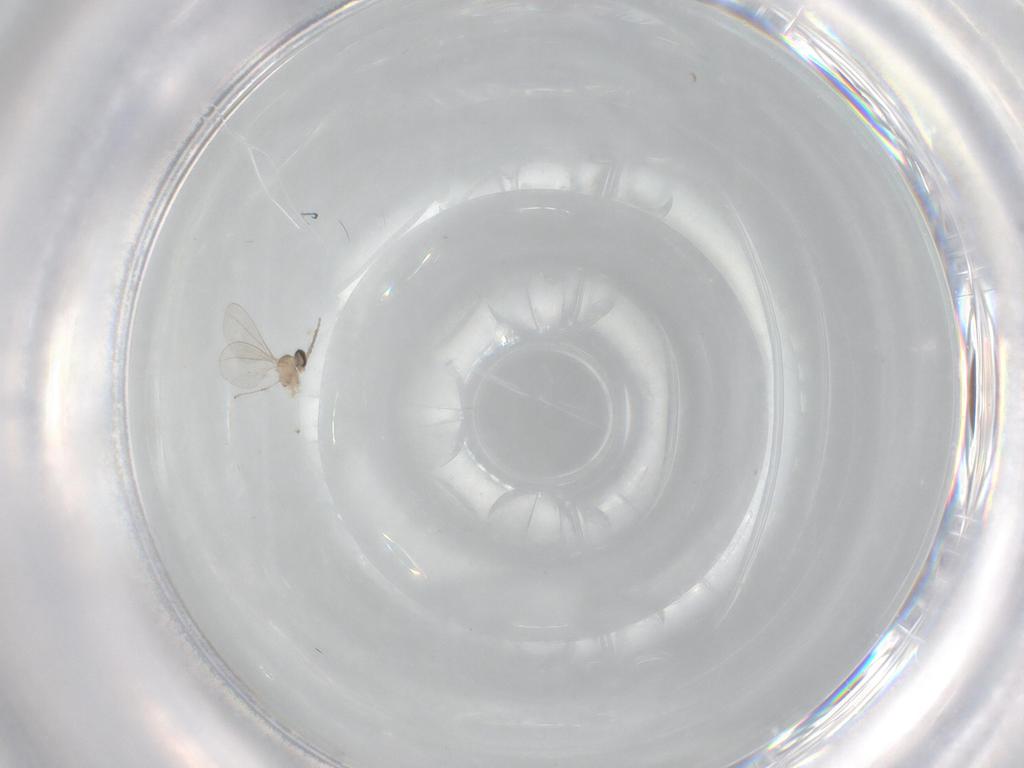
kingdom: Animalia
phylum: Arthropoda
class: Insecta
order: Diptera
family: Cecidomyiidae
